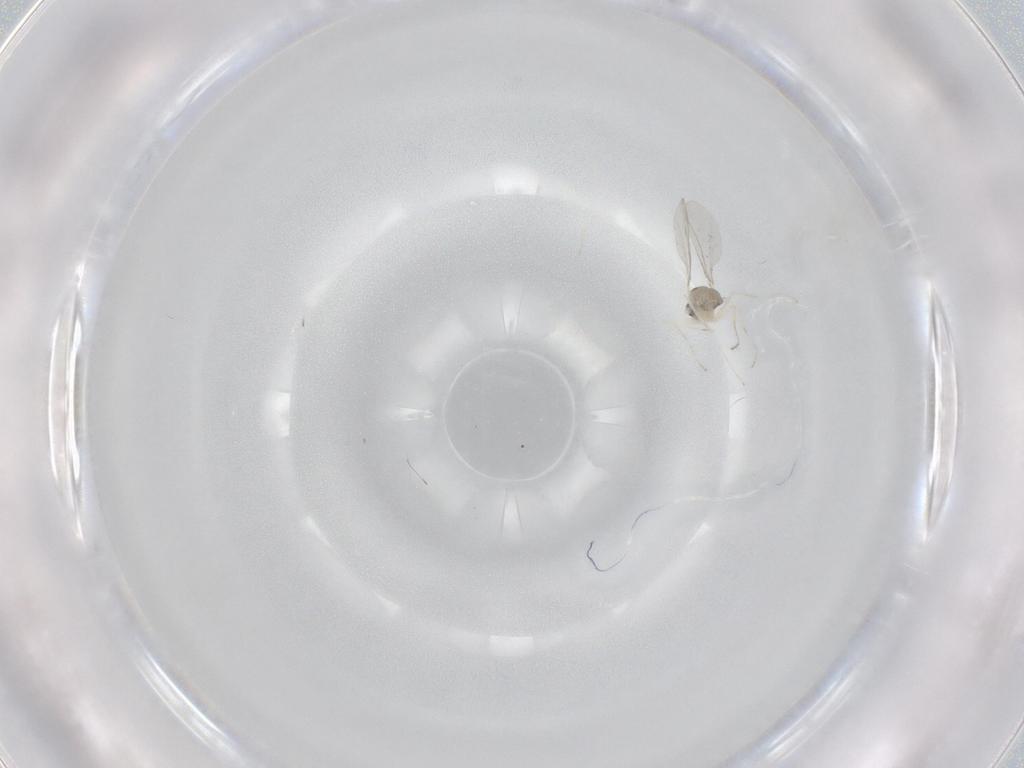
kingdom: Animalia
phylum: Arthropoda
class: Insecta
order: Diptera
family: Cecidomyiidae
